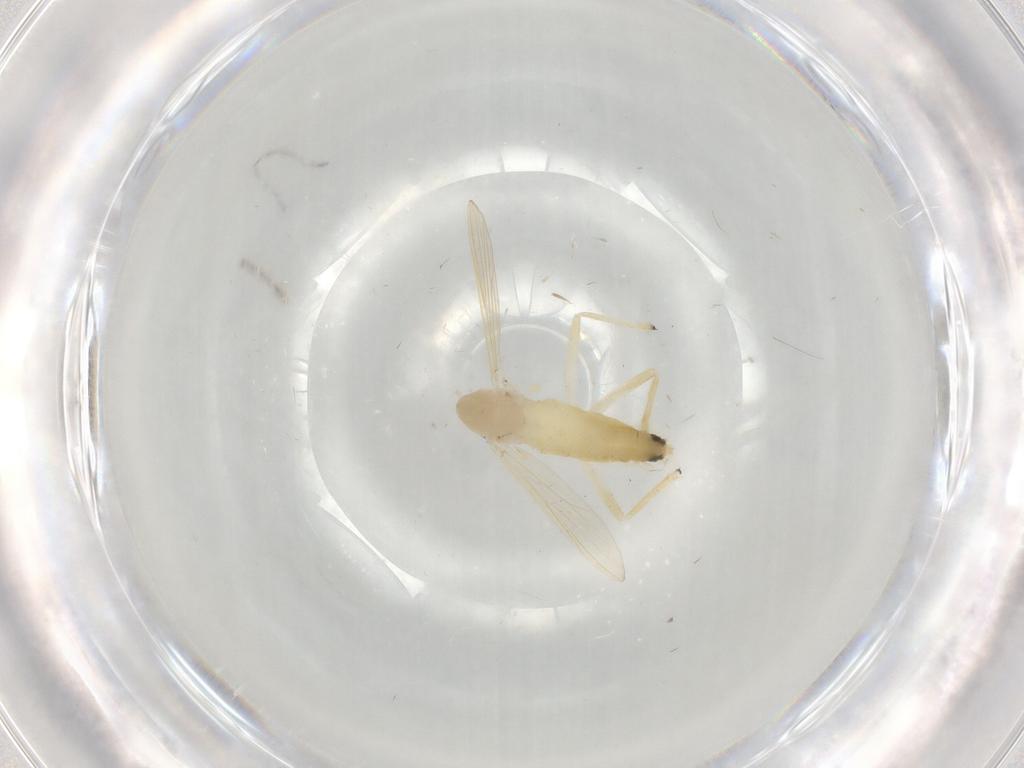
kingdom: Animalia
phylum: Arthropoda
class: Insecta
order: Diptera
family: Chironomidae
